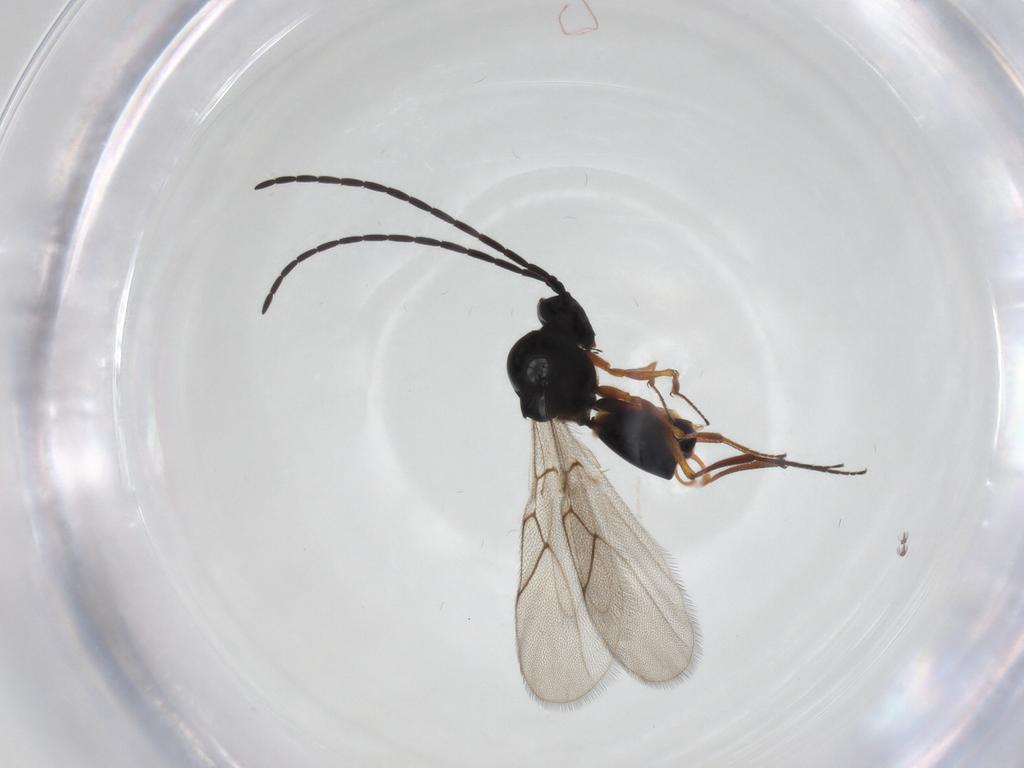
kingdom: Animalia
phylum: Arthropoda
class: Insecta
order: Hymenoptera
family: Figitidae
